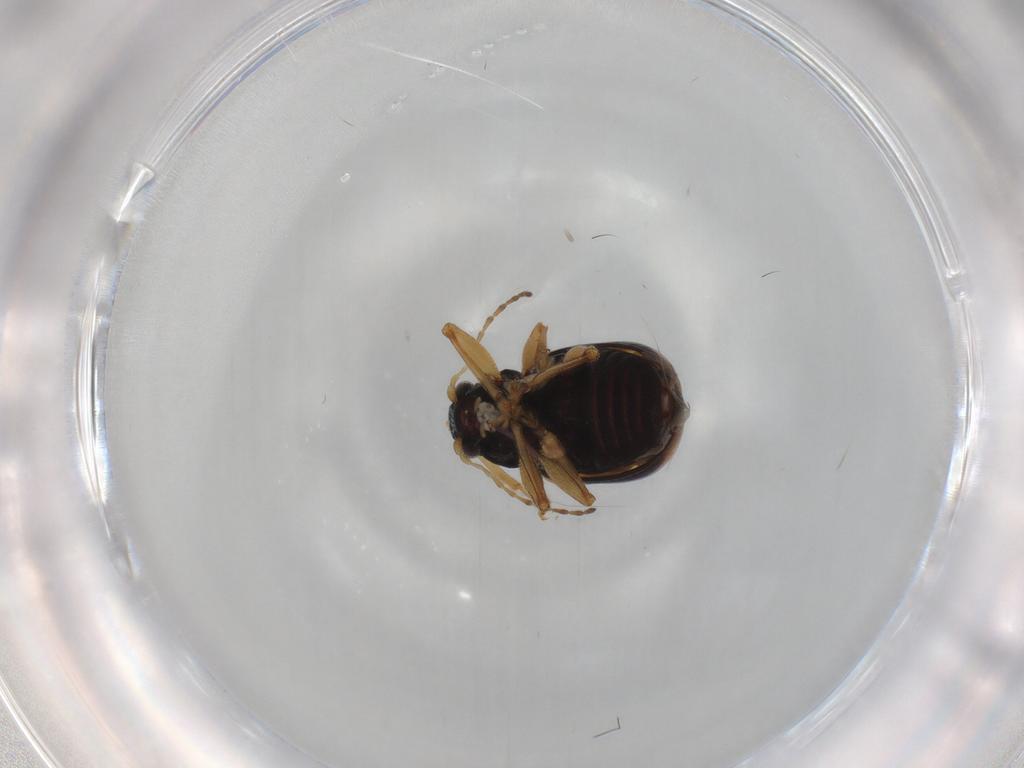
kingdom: Animalia
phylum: Arthropoda
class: Insecta
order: Coleoptera
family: Chrysomelidae
